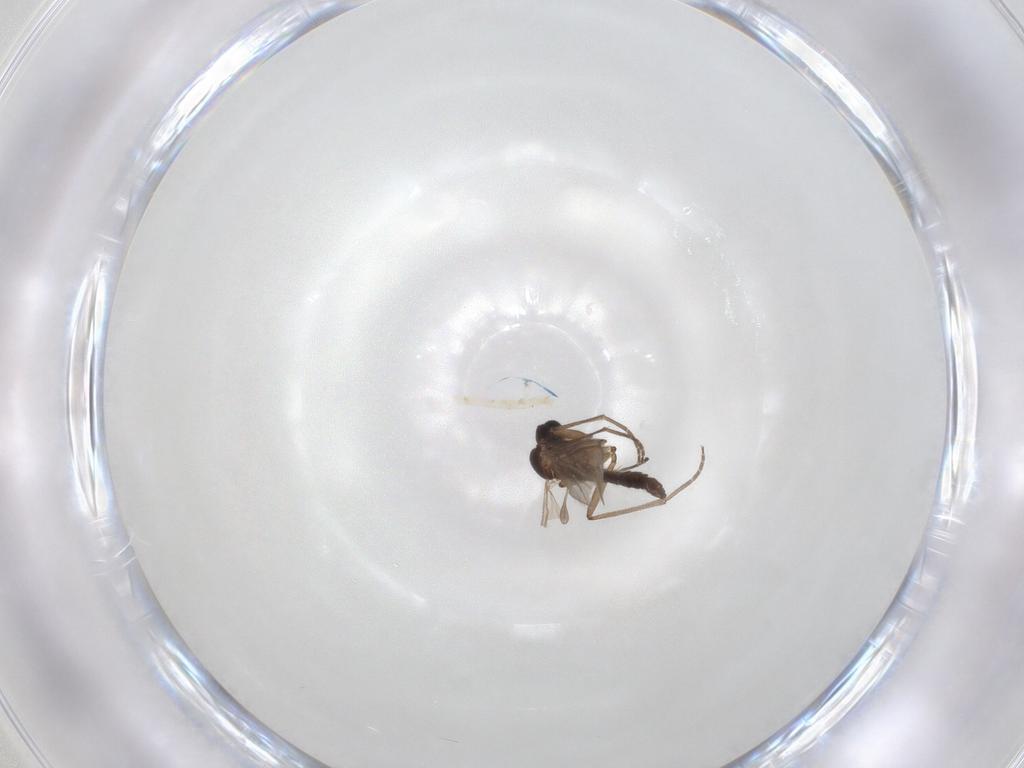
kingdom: Animalia
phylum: Arthropoda
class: Insecta
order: Diptera
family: Sciaridae
